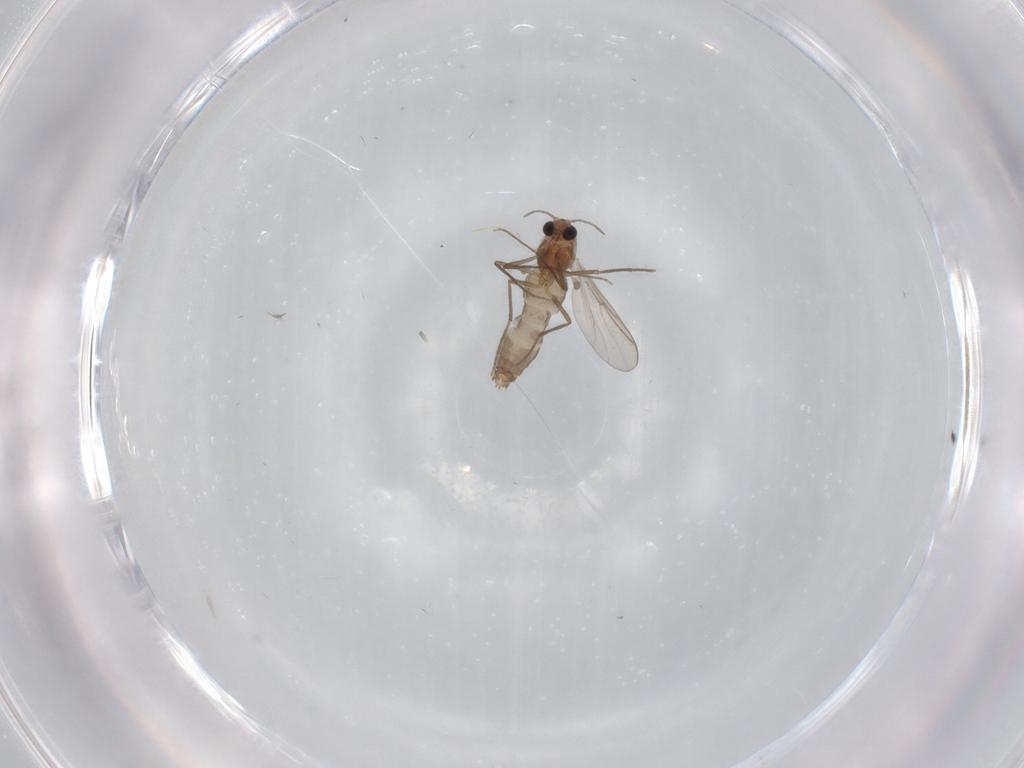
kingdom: Animalia
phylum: Arthropoda
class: Insecta
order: Diptera
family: Chironomidae
